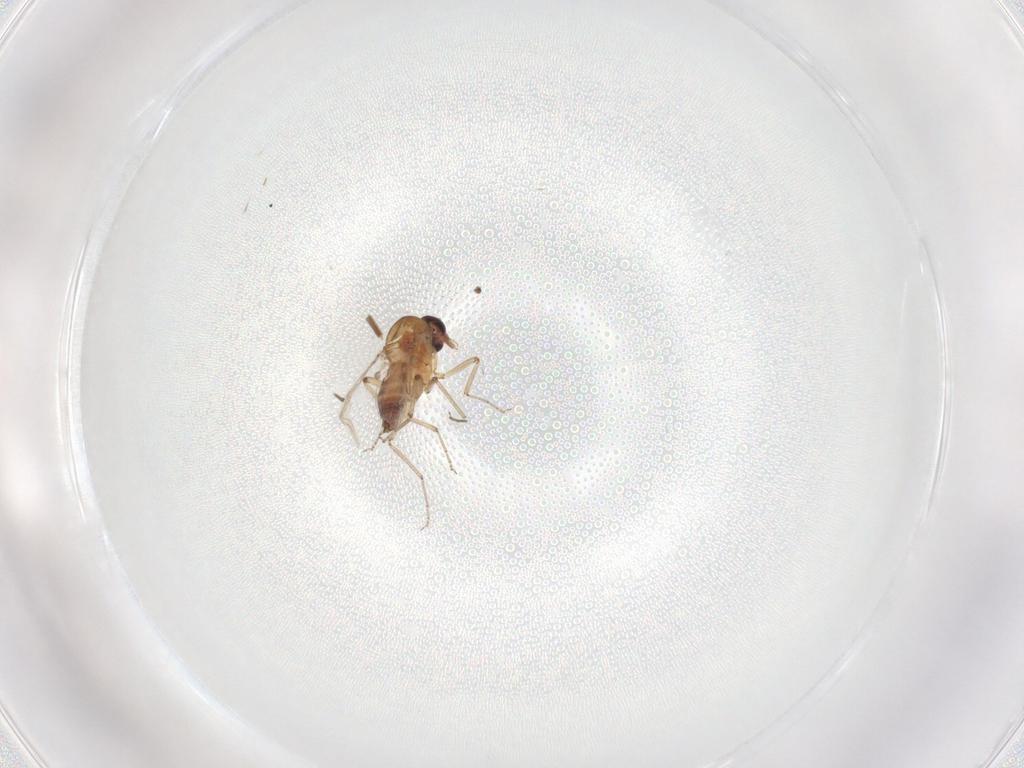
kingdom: Animalia
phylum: Arthropoda
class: Insecta
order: Diptera
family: Ceratopogonidae
